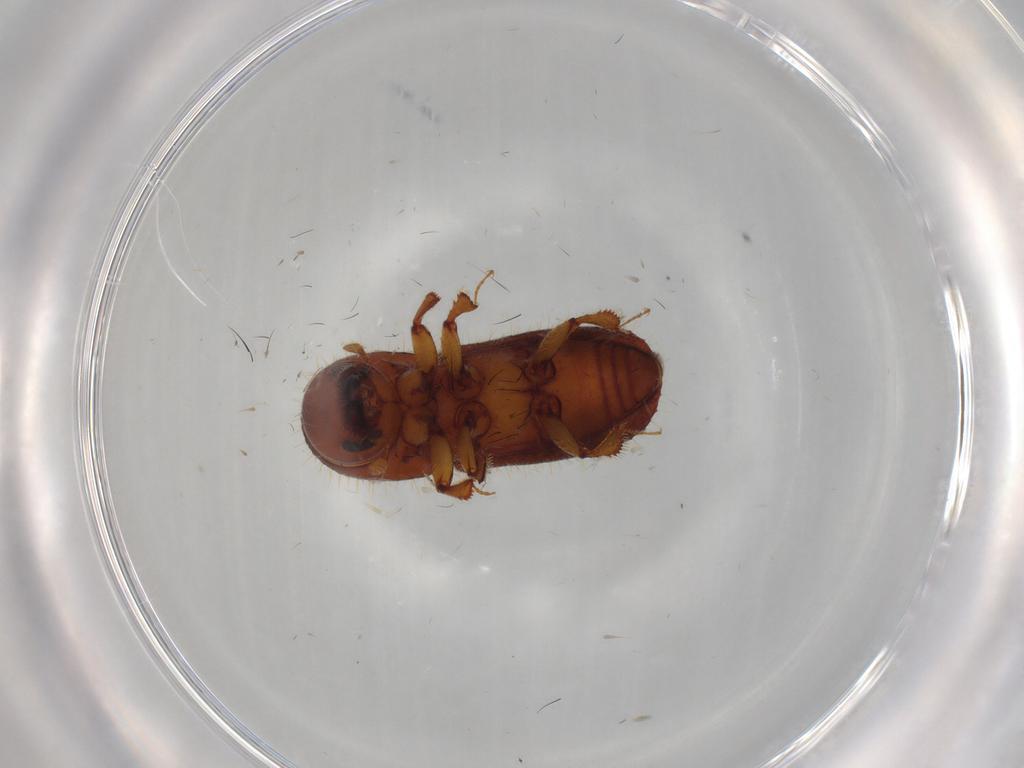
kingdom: Animalia
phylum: Arthropoda
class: Insecta
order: Coleoptera
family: Curculionidae
